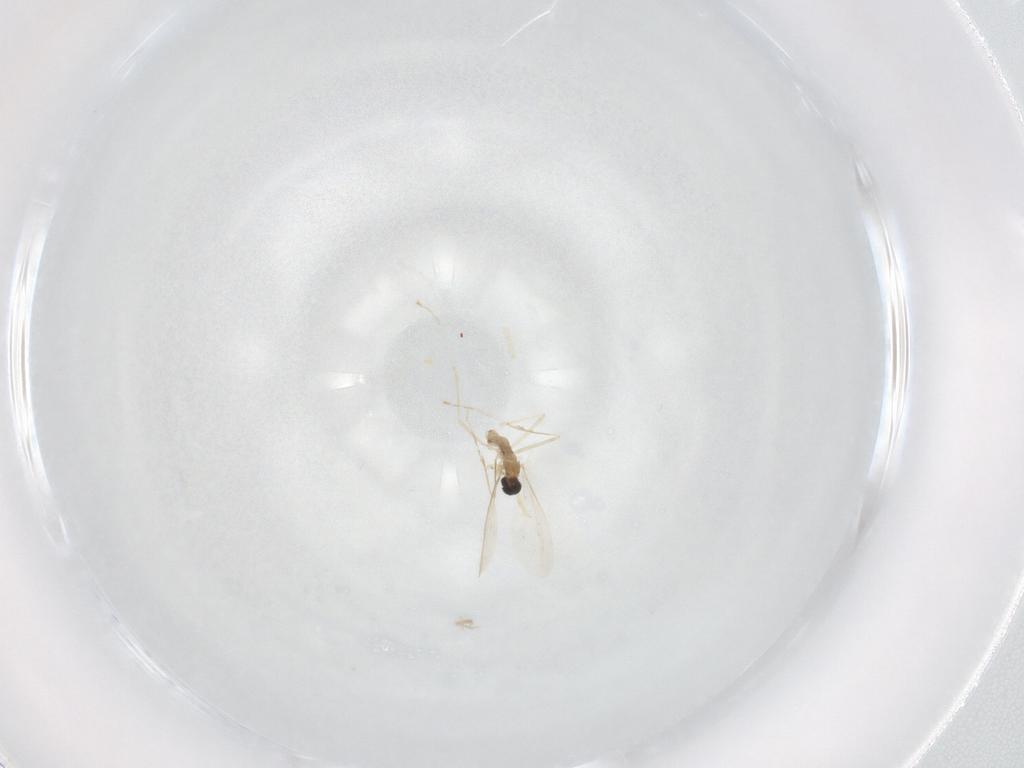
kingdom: Animalia
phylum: Arthropoda
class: Insecta
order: Diptera
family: Cecidomyiidae
